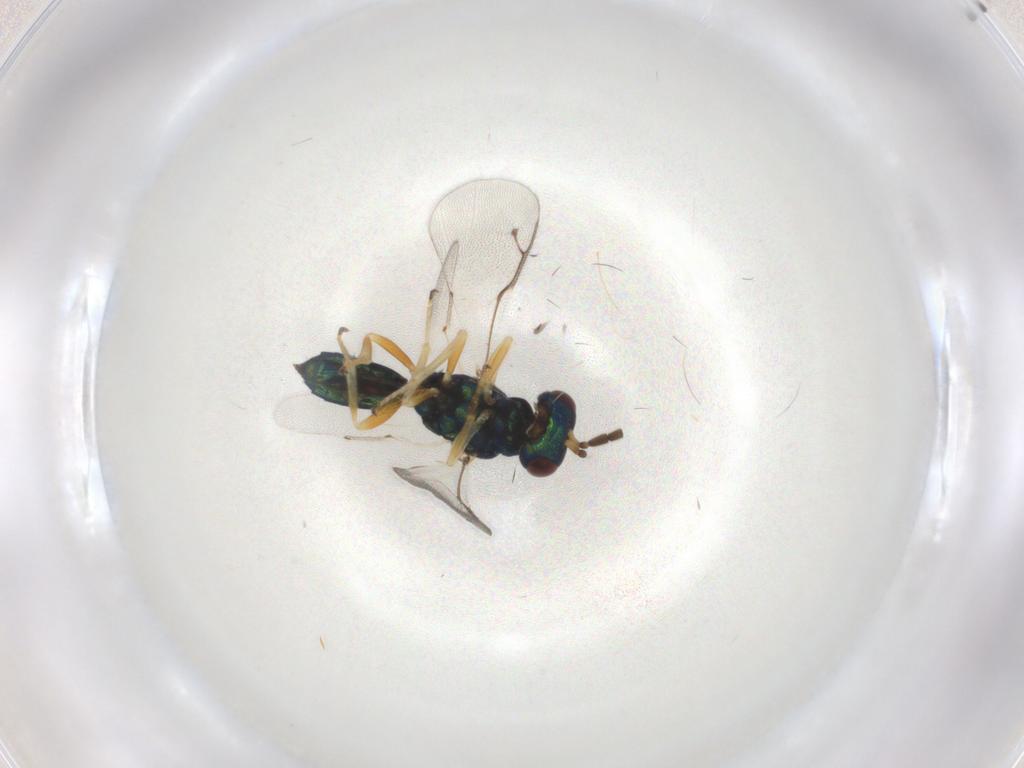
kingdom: Animalia
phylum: Arthropoda
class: Insecta
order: Hymenoptera
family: Pteromalidae
